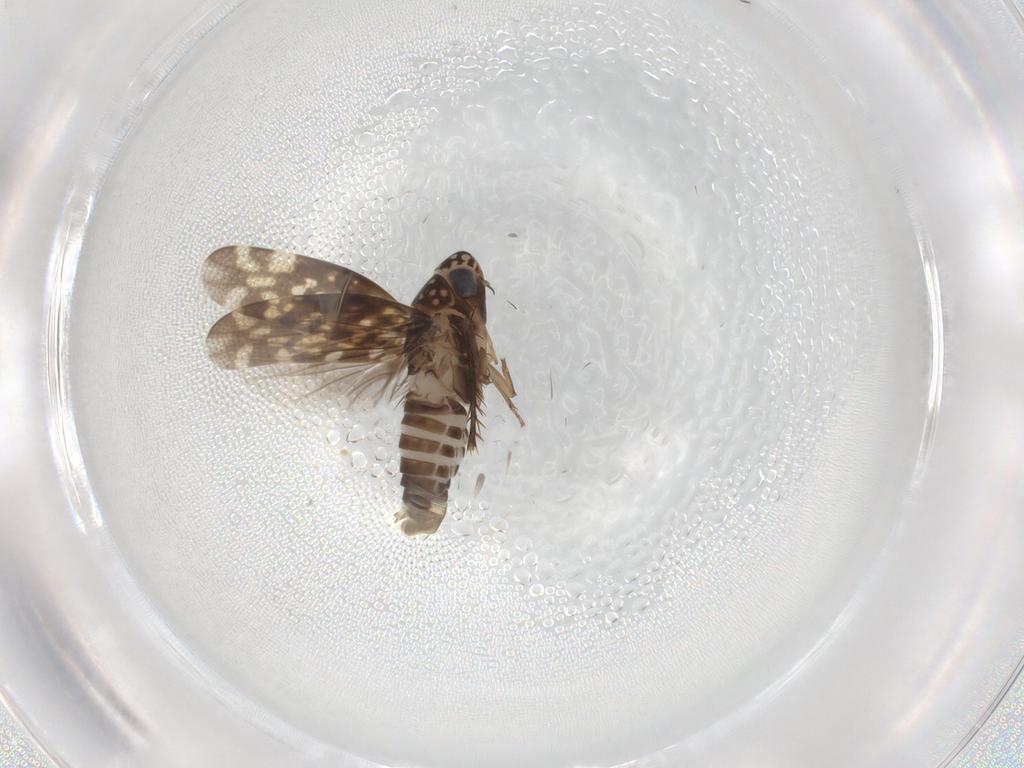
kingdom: Animalia
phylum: Arthropoda
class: Insecta
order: Hemiptera
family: Cicadellidae
